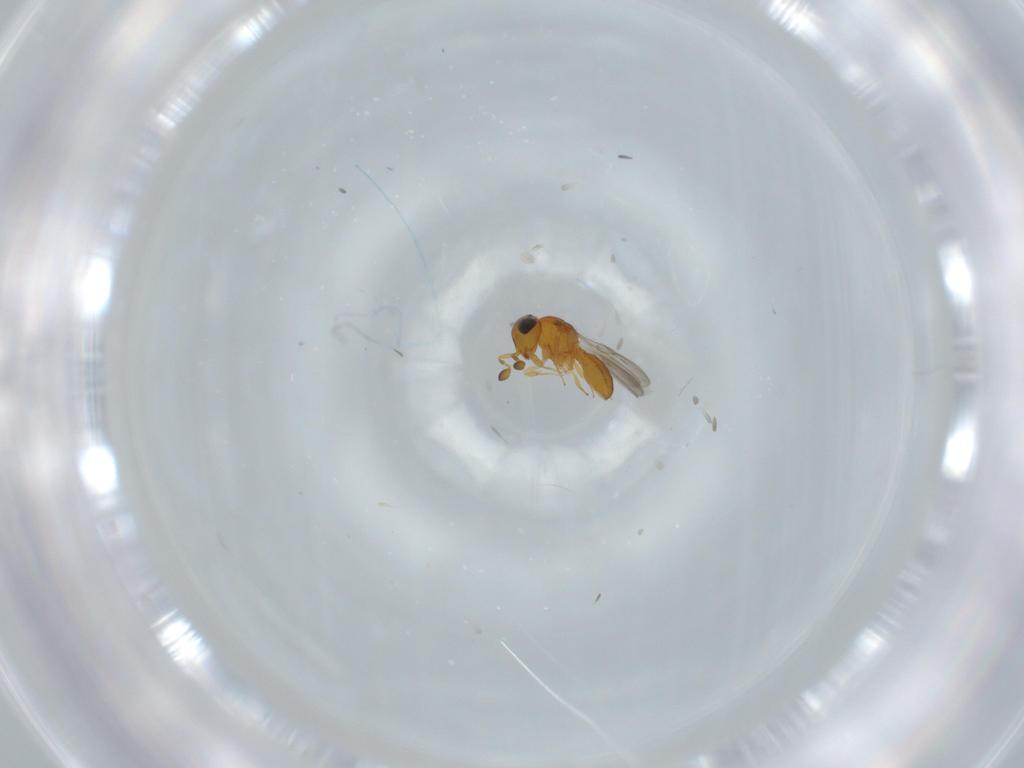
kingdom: Animalia
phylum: Arthropoda
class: Insecta
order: Hymenoptera
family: Scelionidae
